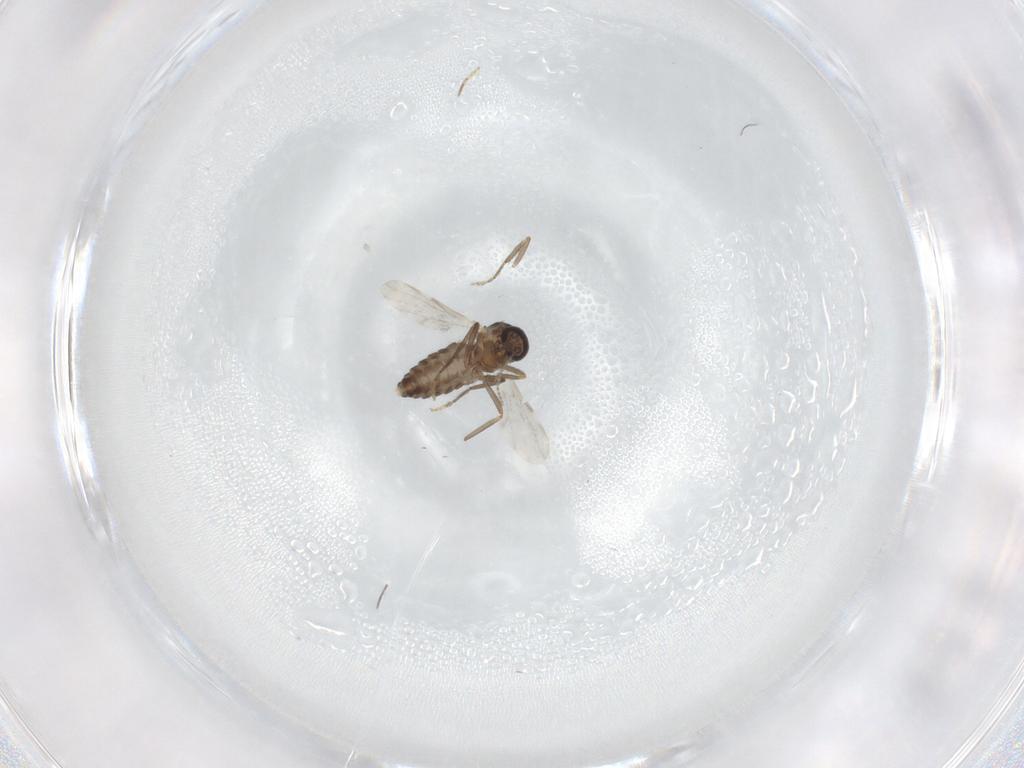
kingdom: Animalia
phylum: Arthropoda
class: Insecta
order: Diptera
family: Ceratopogonidae
